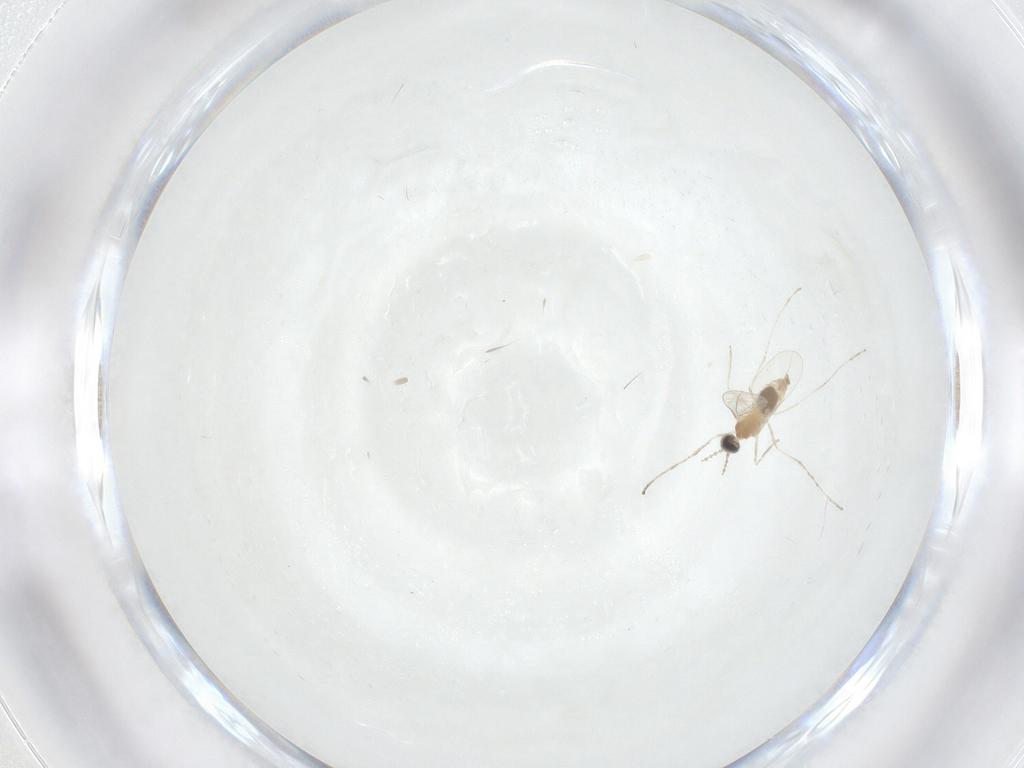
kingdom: Animalia
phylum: Arthropoda
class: Insecta
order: Diptera
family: Cecidomyiidae
